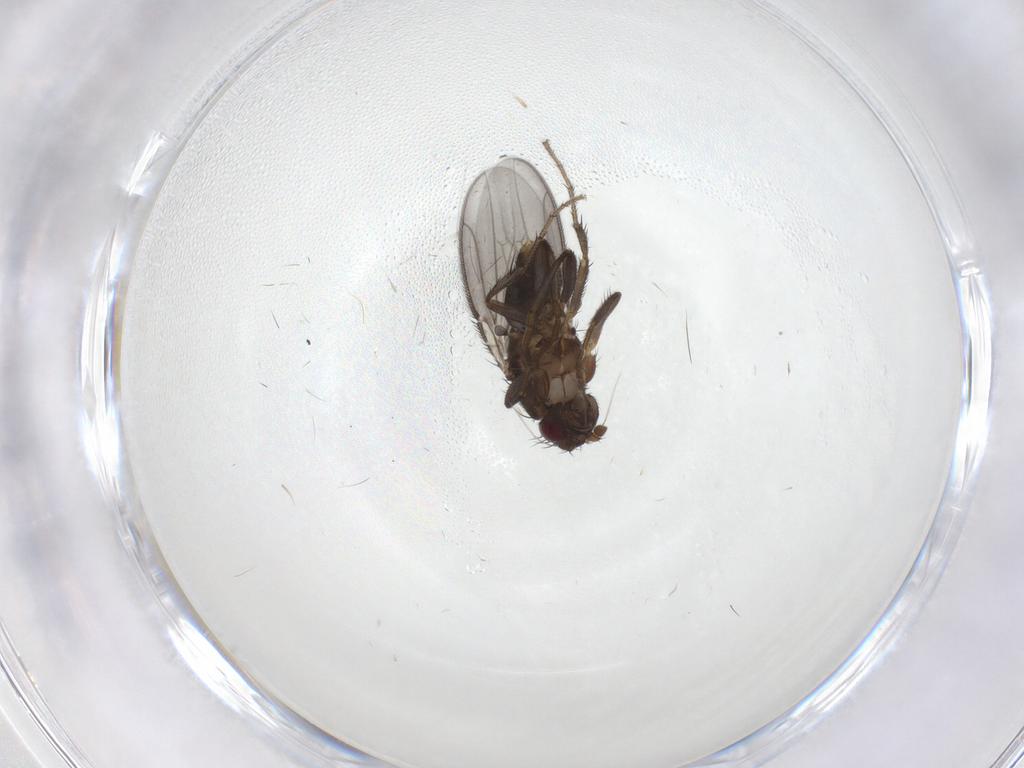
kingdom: Animalia
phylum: Arthropoda
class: Insecta
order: Diptera
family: Sphaeroceridae
